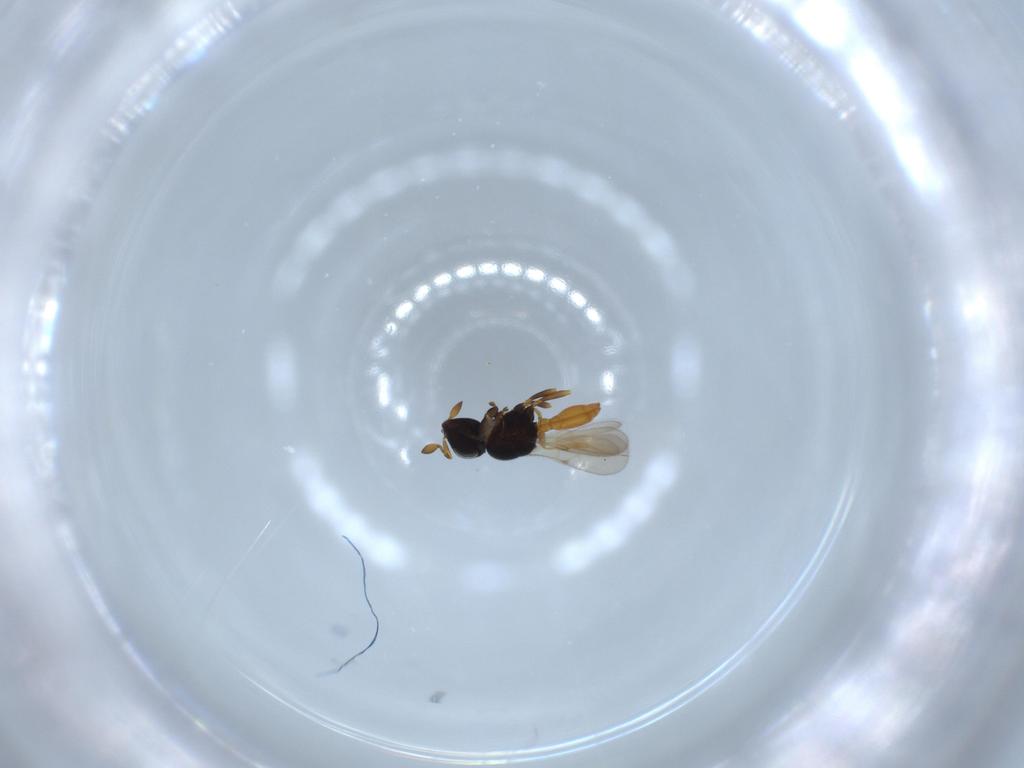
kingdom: Animalia
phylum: Arthropoda
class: Insecta
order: Hymenoptera
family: Scelionidae
